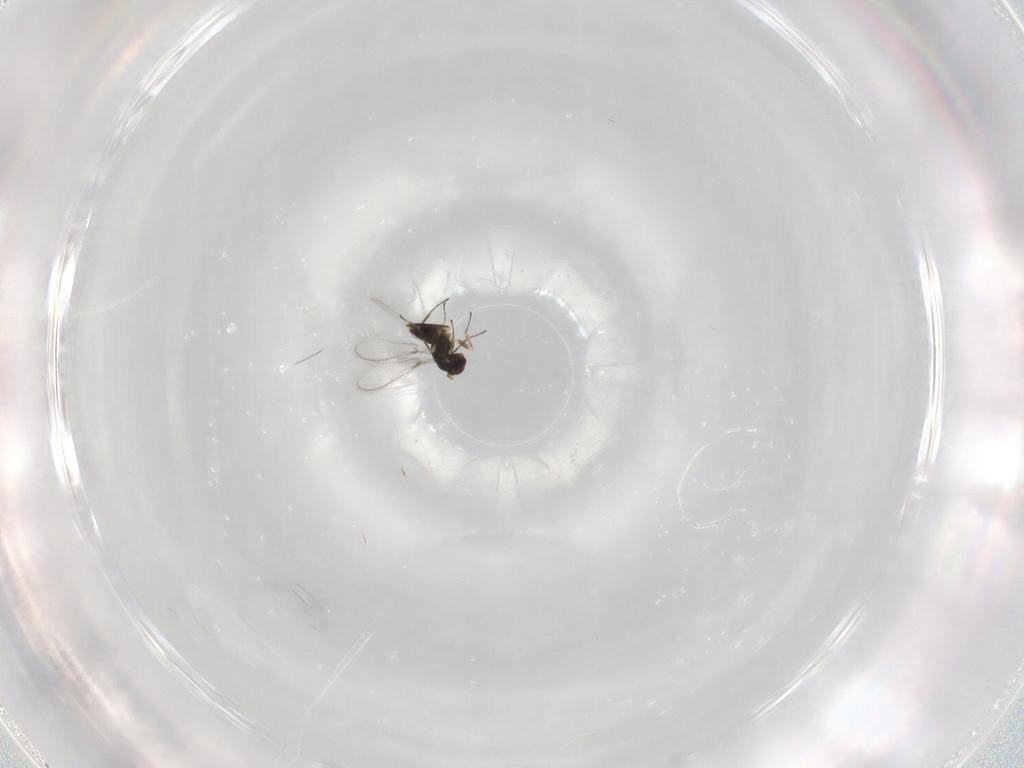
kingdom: Animalia
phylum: Arthropoda
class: Insecta
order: Hymenoptera
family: Mymaridae
